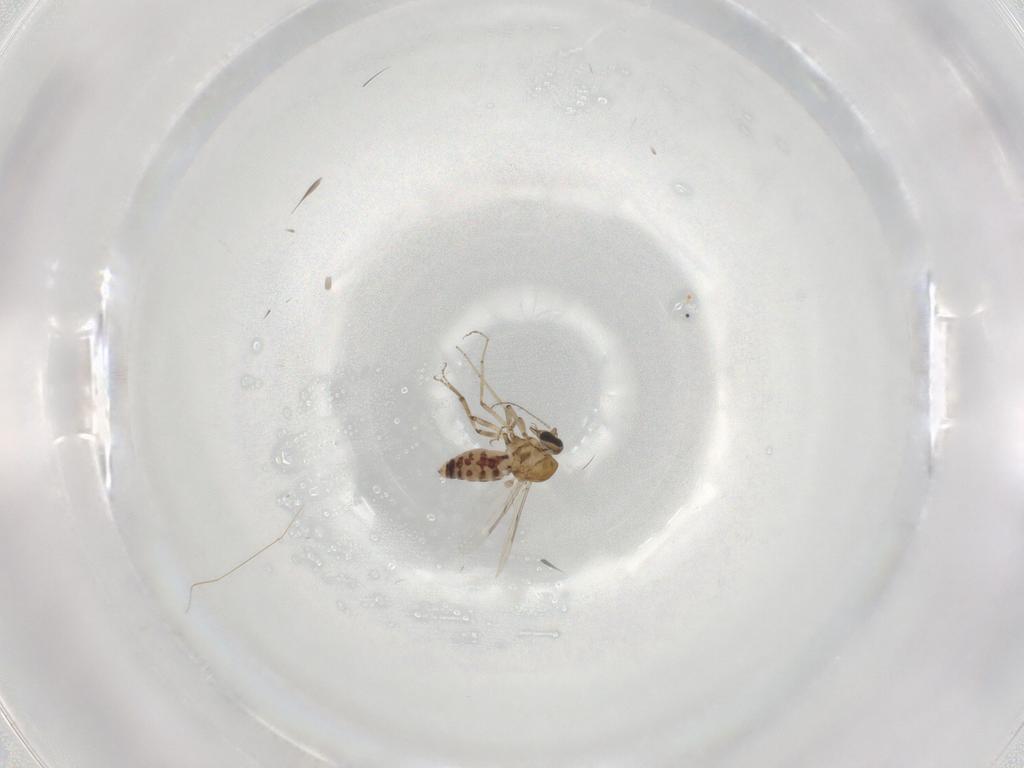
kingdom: Animalia
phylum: Arthropoda
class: Insecta
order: Diptera
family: Ceratopogonidae
